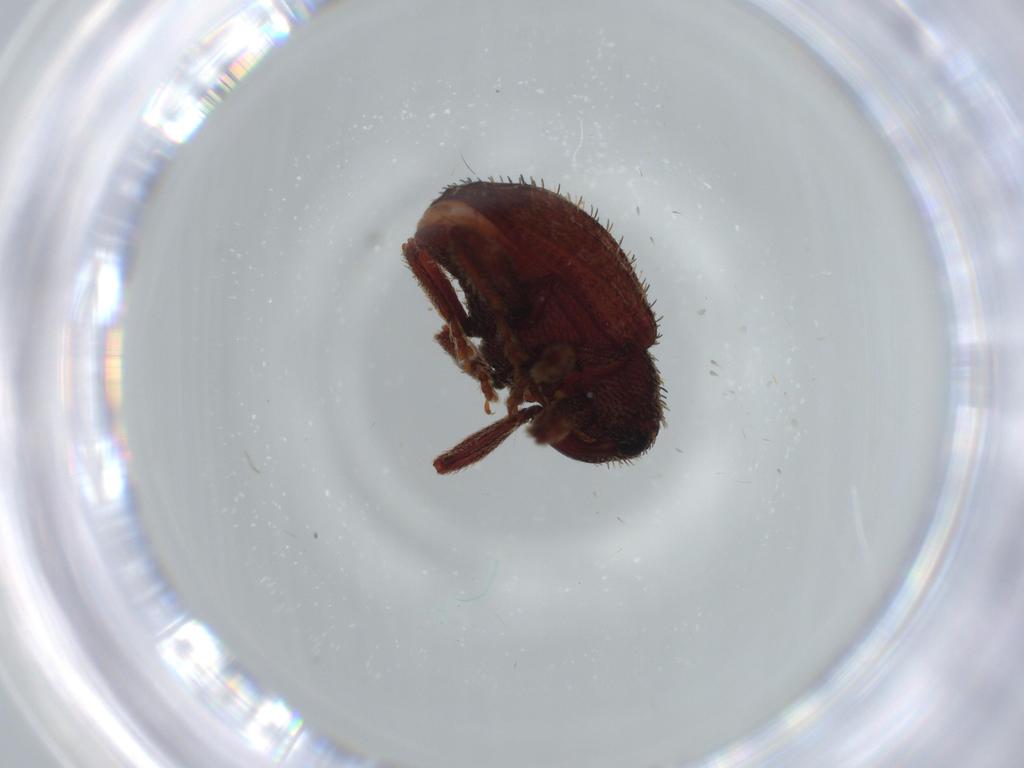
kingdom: Animalia
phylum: Arthropoda
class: Insecta
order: Coleoptera
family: Curculionidae
